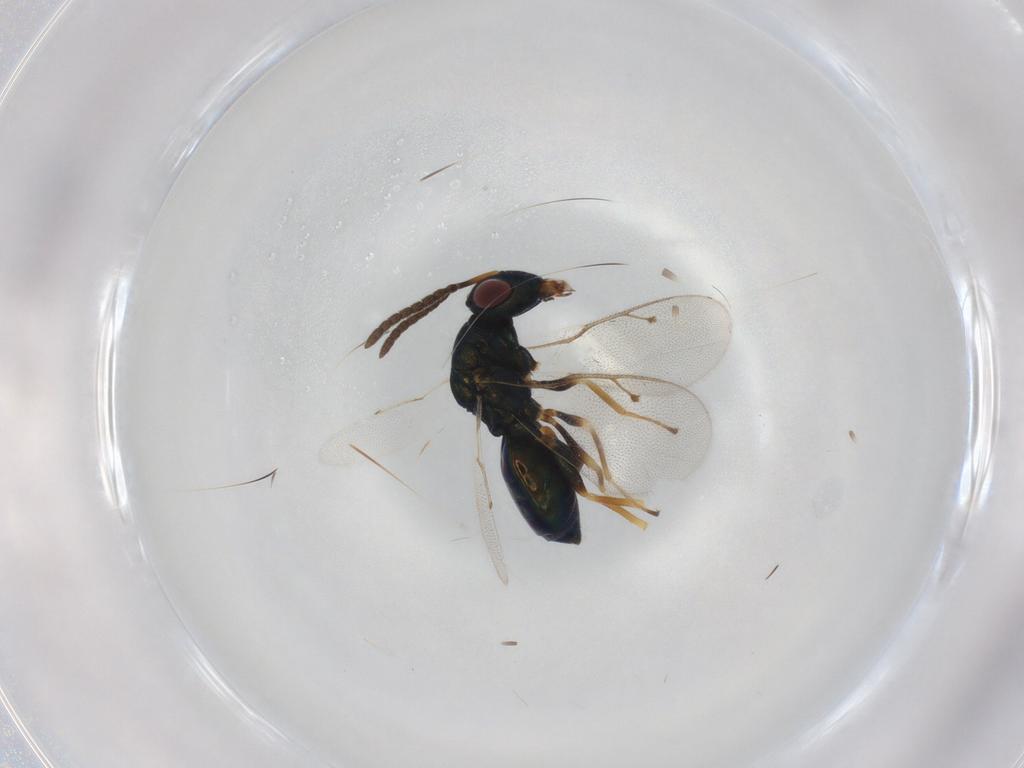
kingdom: Animalia
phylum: Arthropoda
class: Insecta
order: Hymenoptera
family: Pteromalidae
